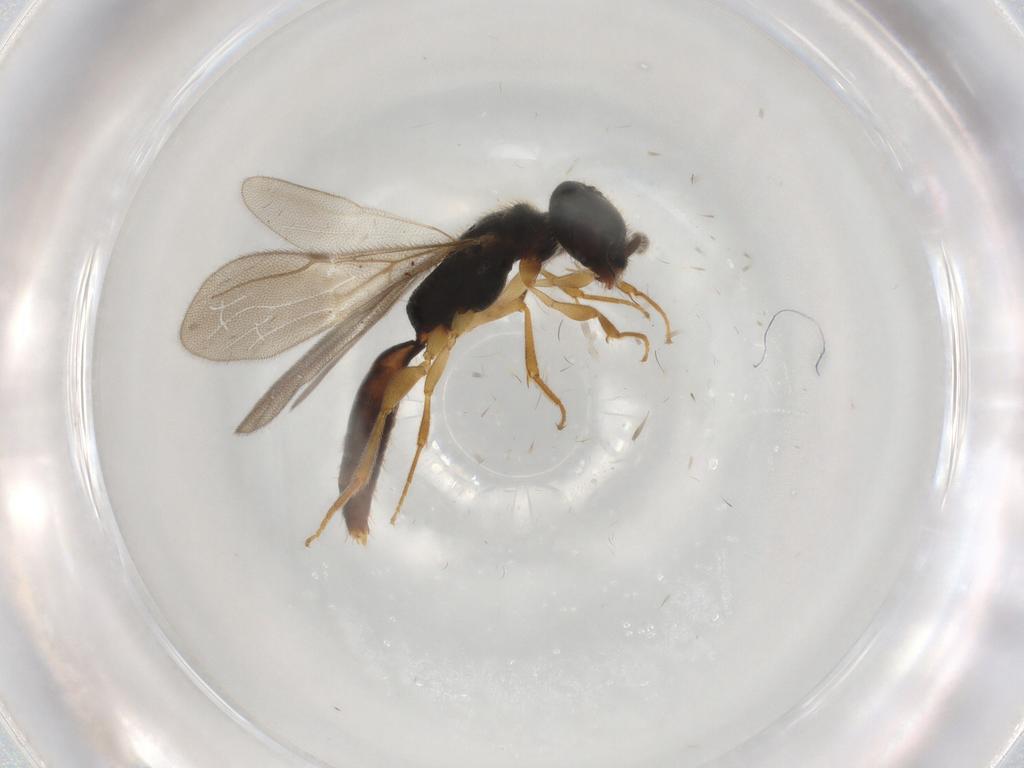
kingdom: Animalia
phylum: Arthropoda
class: Insecta
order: Hymenoptera
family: Bethylidae
